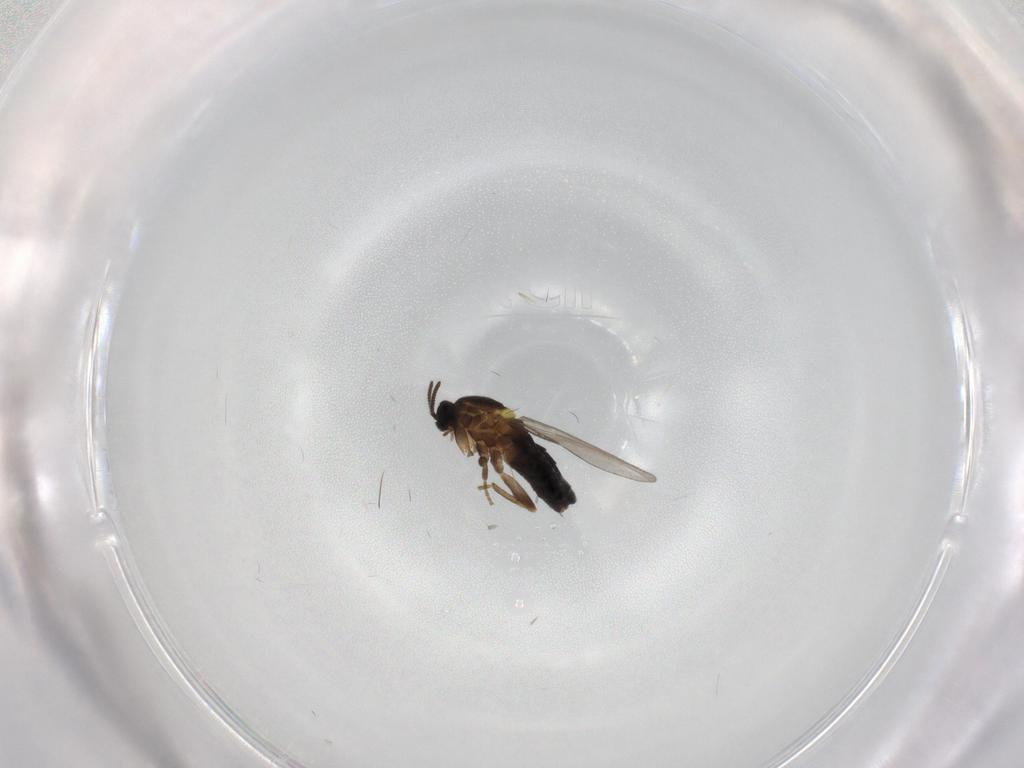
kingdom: Animalia
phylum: Arthropoda
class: Insecta
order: Diptera
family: Scatopsidae
